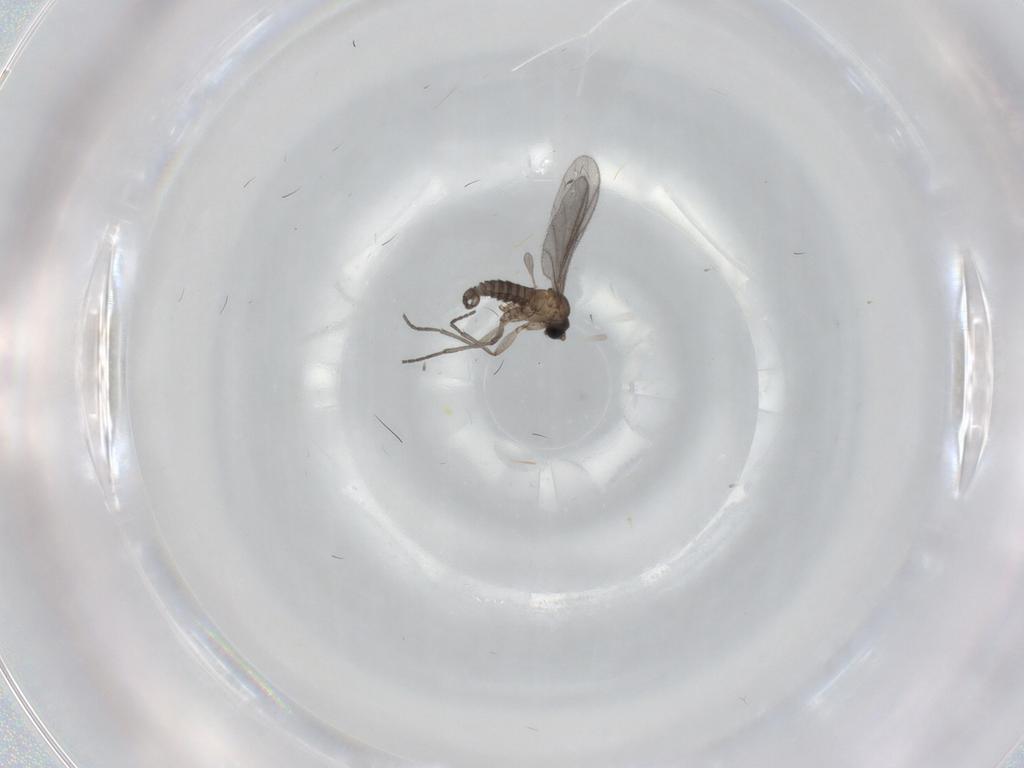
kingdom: Animalia
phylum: Arthropoda
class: Insecta
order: Diptera
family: Sciaridae
